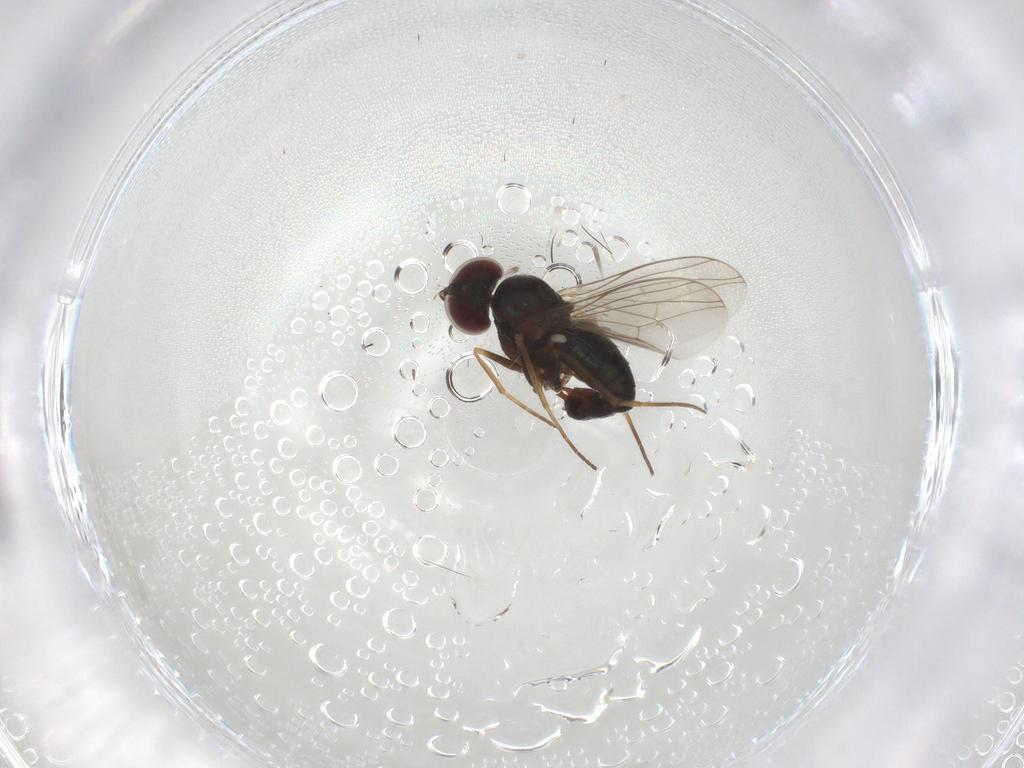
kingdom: Animalia
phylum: Arthropoda
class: Insecta
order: Diptera
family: Dolichopodidae
